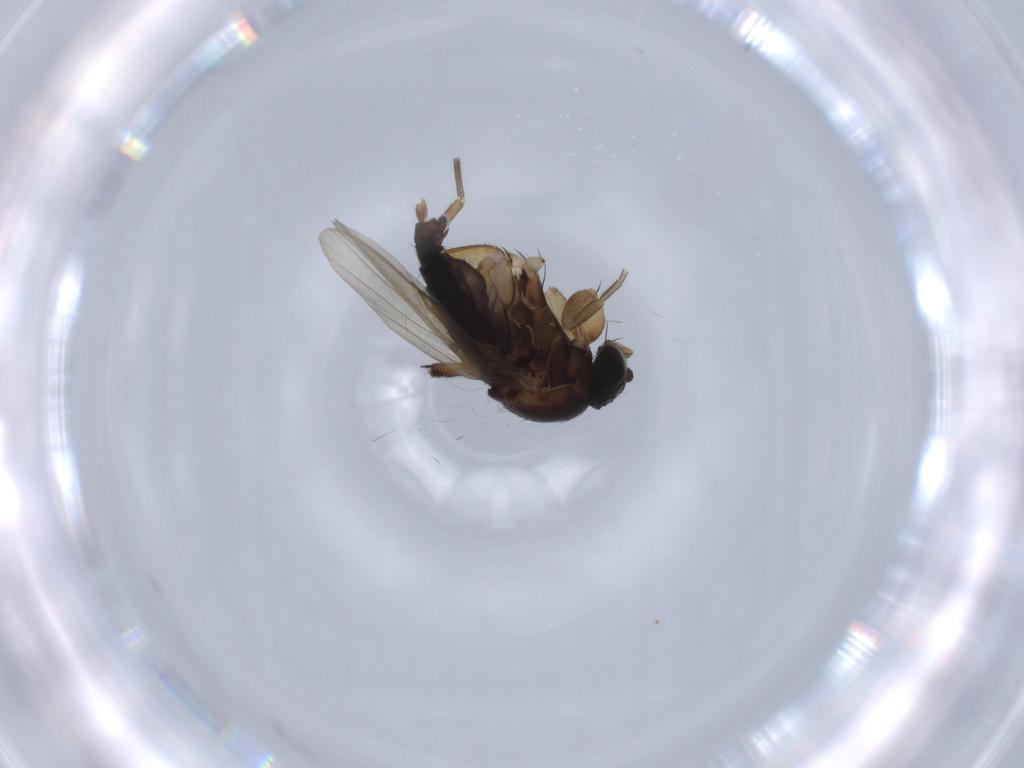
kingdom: Animalia
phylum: Arthropoda
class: Insecta
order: Diptera
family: Phoridae
